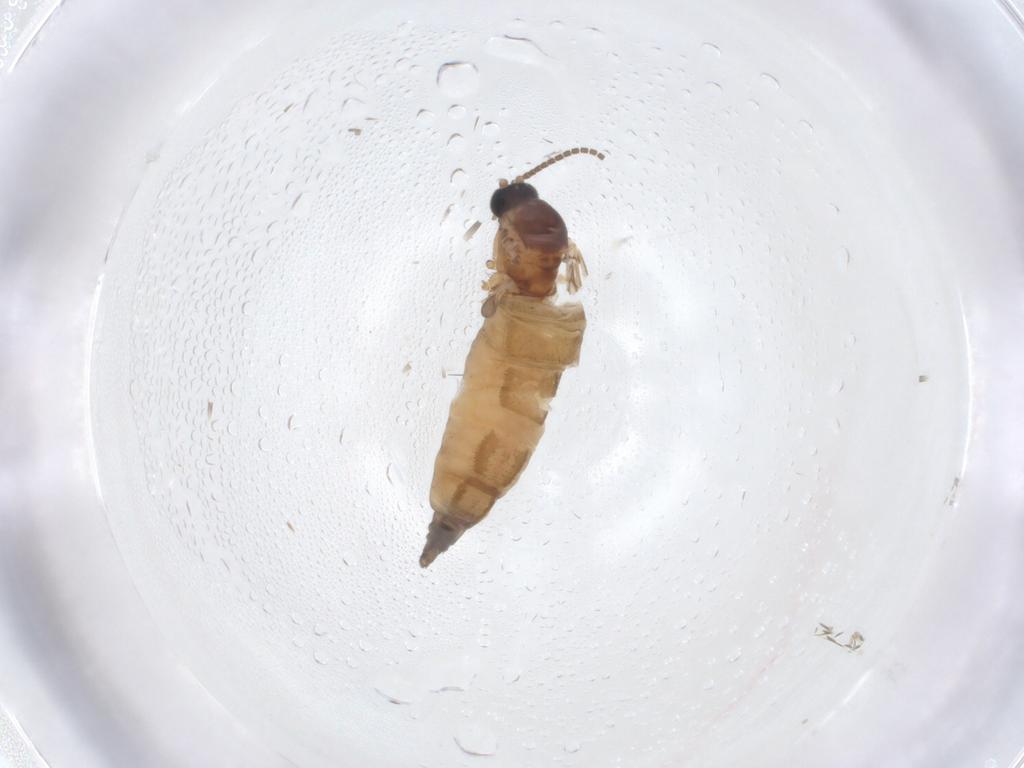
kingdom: Animalia
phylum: Arthropoda
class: Insecta
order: Diptera
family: Sciaridae
